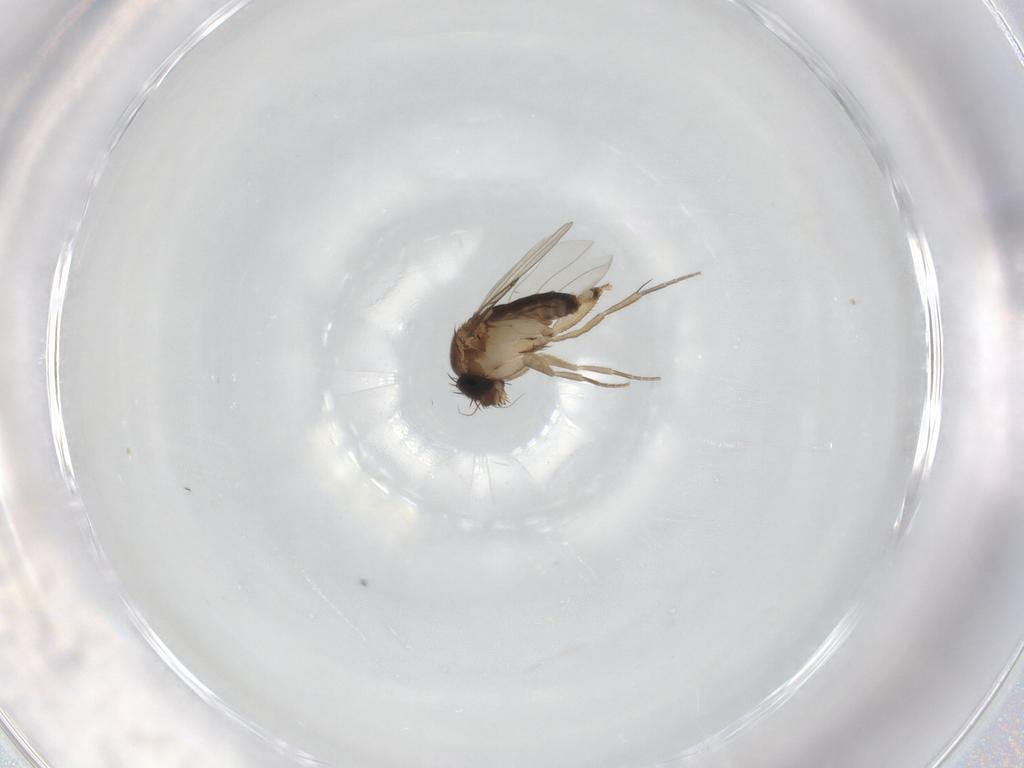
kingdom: Animalia
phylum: Arthropoda
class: Insecta
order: Diptera
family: Phoridae
